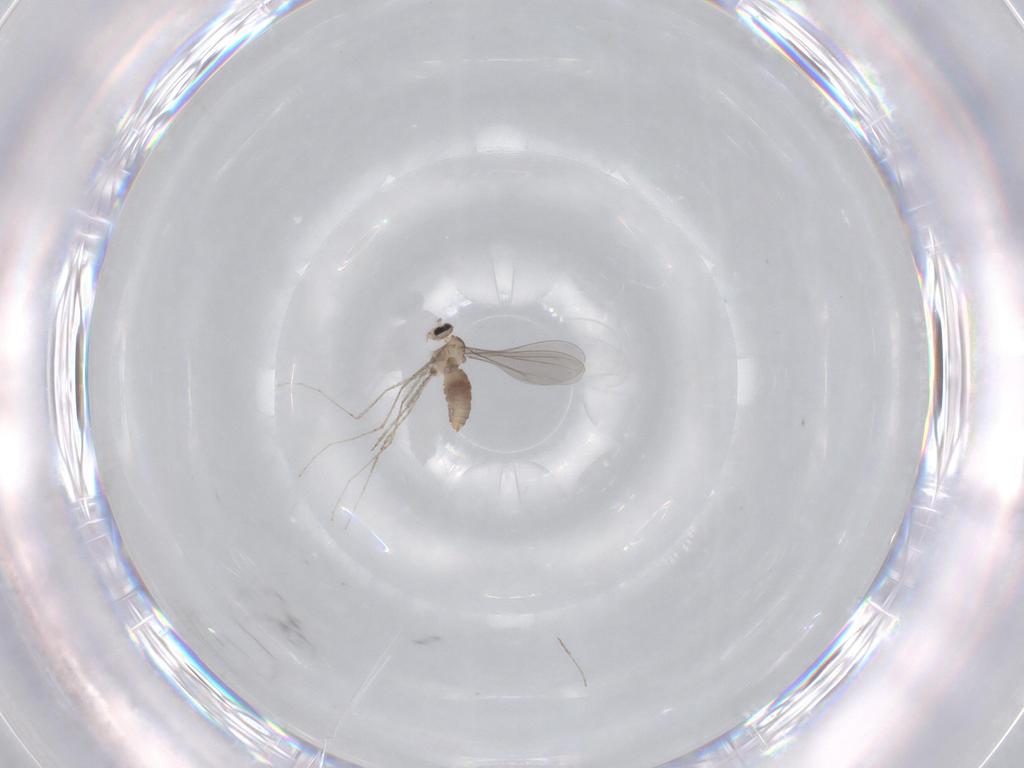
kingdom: Animalia
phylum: Arthropoda
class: Insecta
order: Diptera
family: Cecidomyiidae
